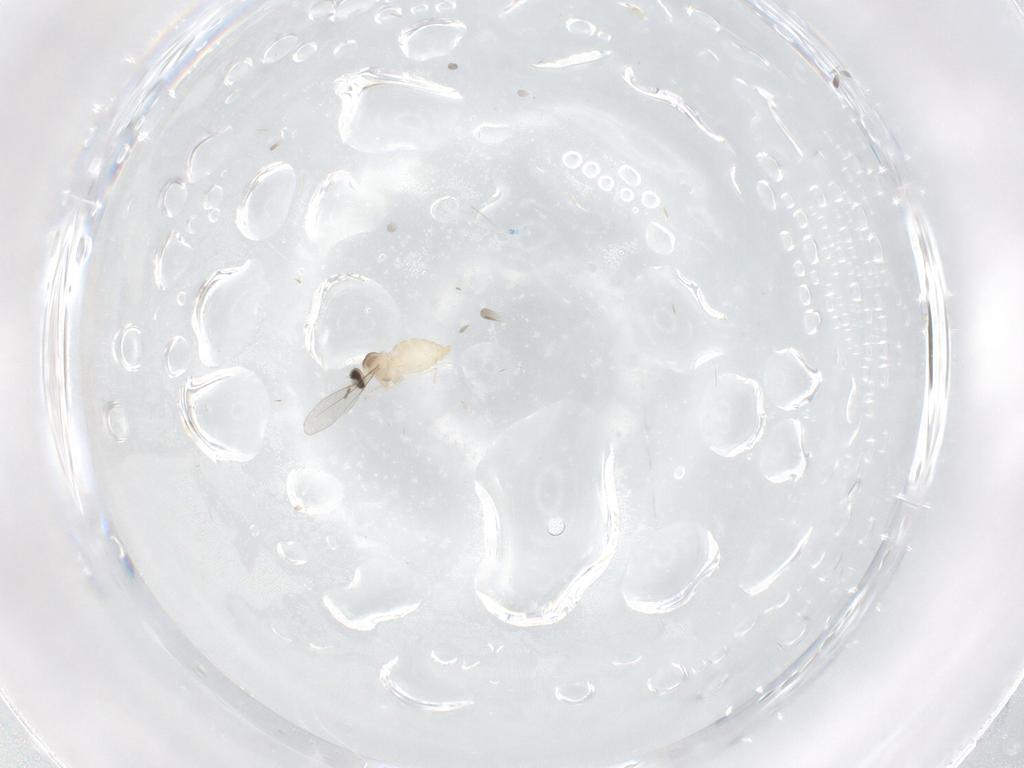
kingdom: Animalia
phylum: Arthropoda
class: Insecta
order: Diptera
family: Cecidomyiidae
